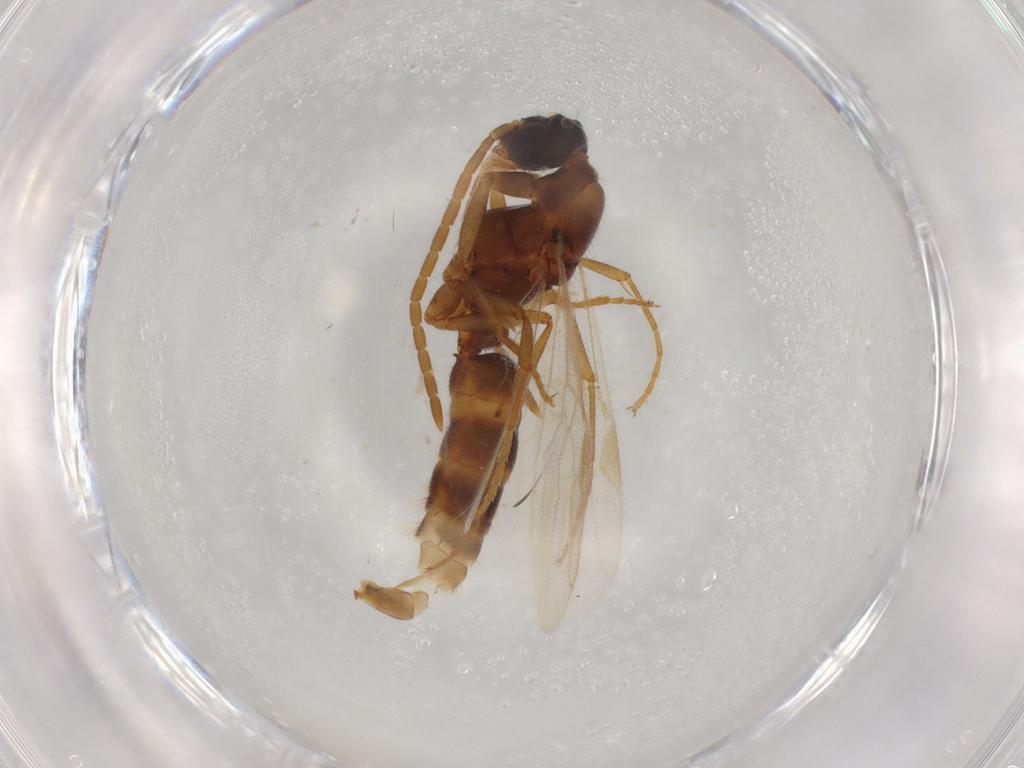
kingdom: Animalia
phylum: Arthropoda
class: Insecta
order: Hymenoptera
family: Formicidae
